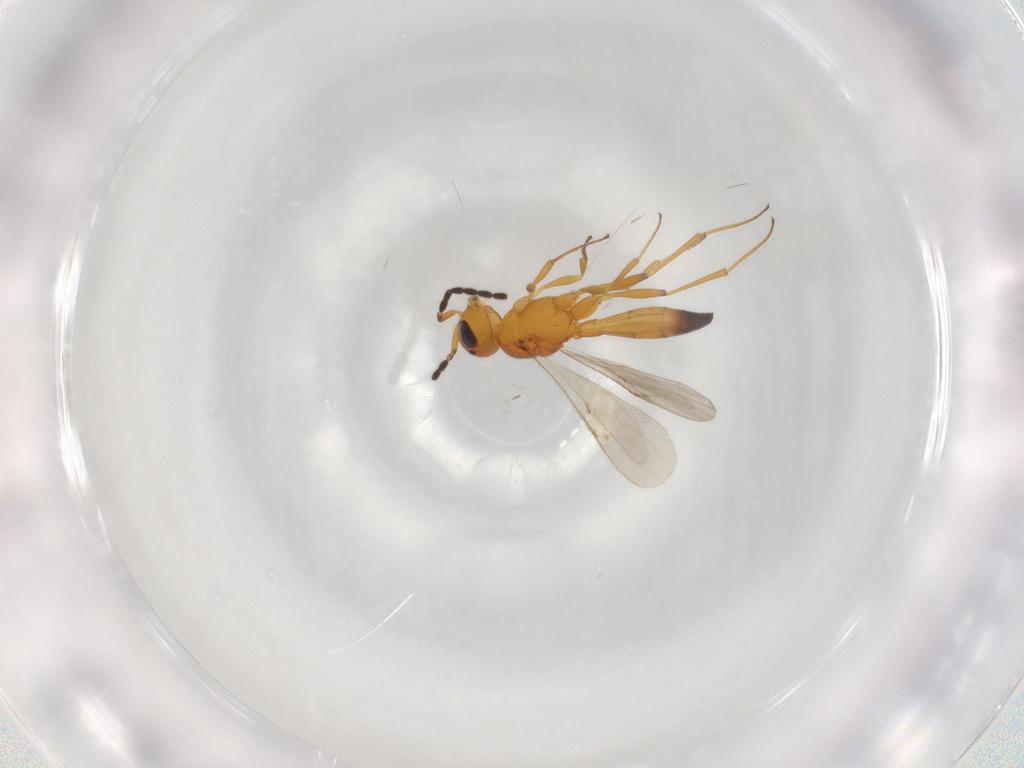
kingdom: Animalia
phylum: Arthropoda
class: Insecta
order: Hymenoptera
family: Scelionidae
